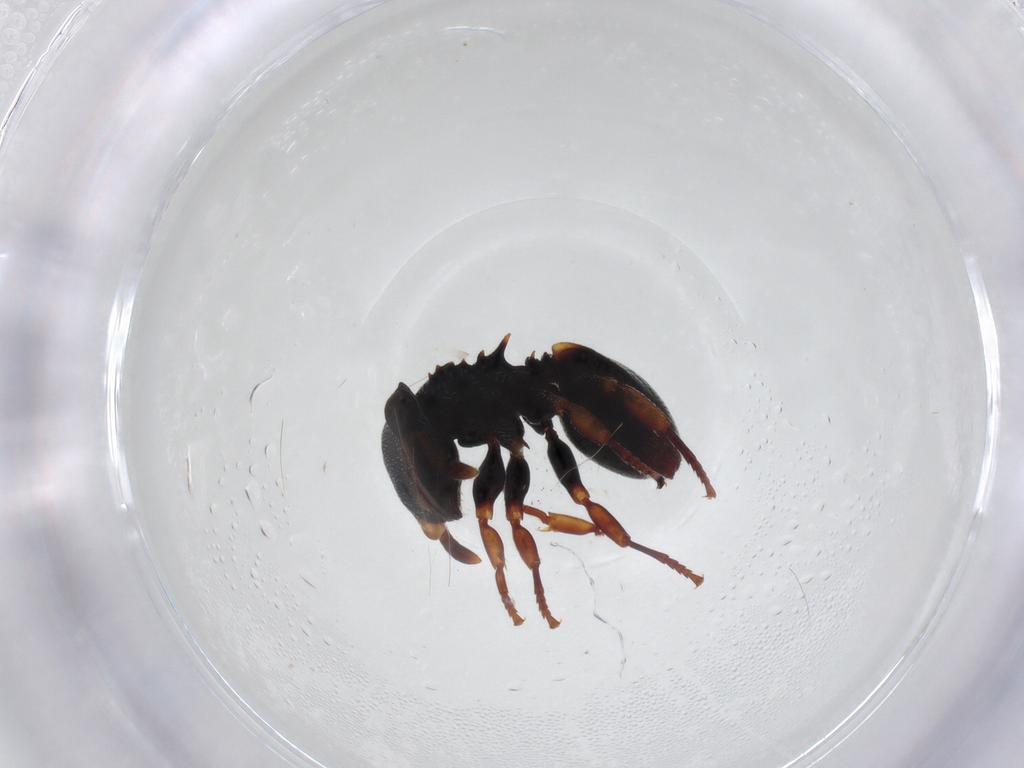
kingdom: Animalia
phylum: Arthropoda
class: Insecta
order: Hymenoptera
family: Formicidae
